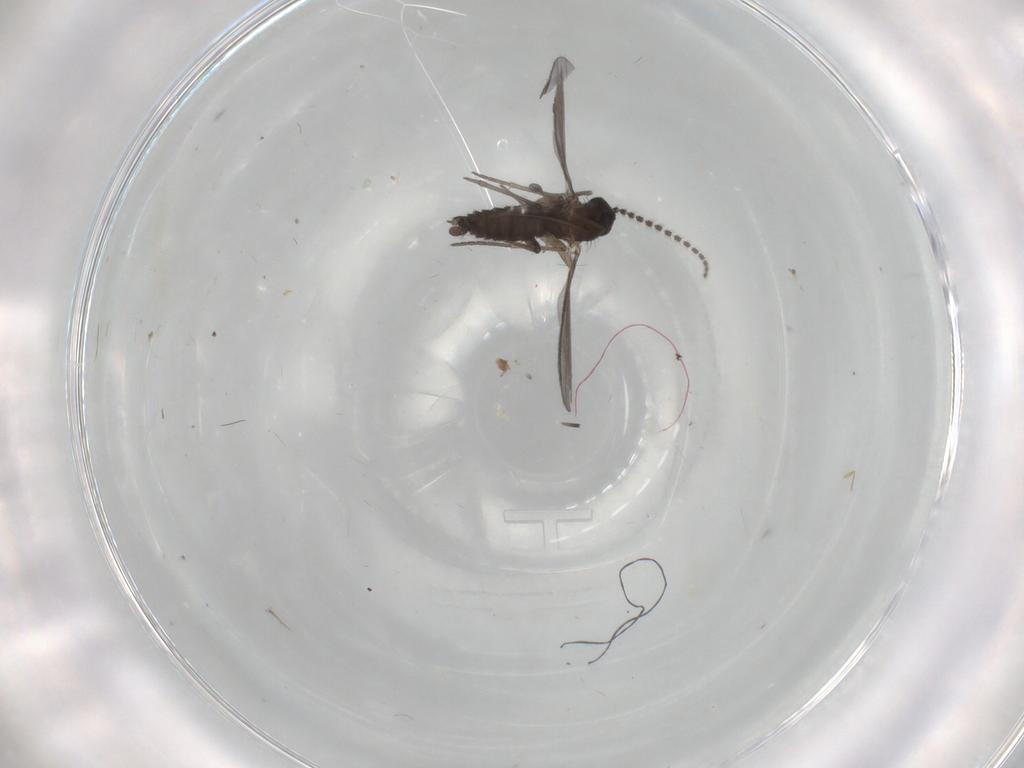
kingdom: Animalia
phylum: Arthropoda
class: Insecta
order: Diptera
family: Sciaridae
